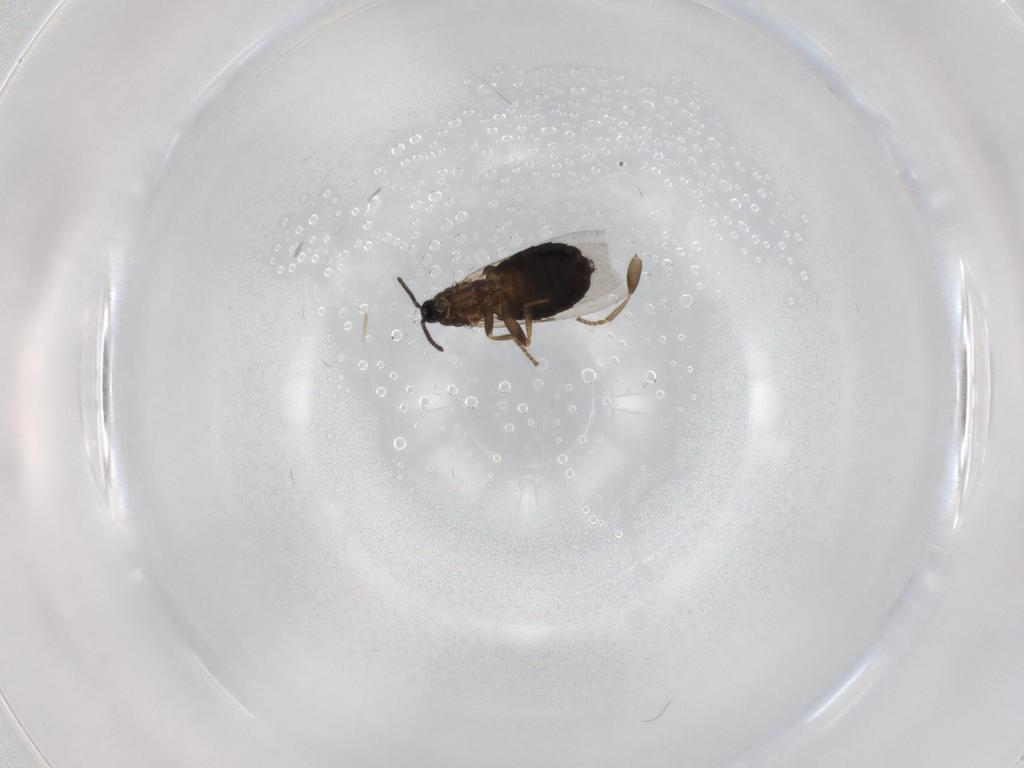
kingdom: Animalia
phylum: Arthropoda
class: Insecta
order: Diptera
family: Scatopsidae
